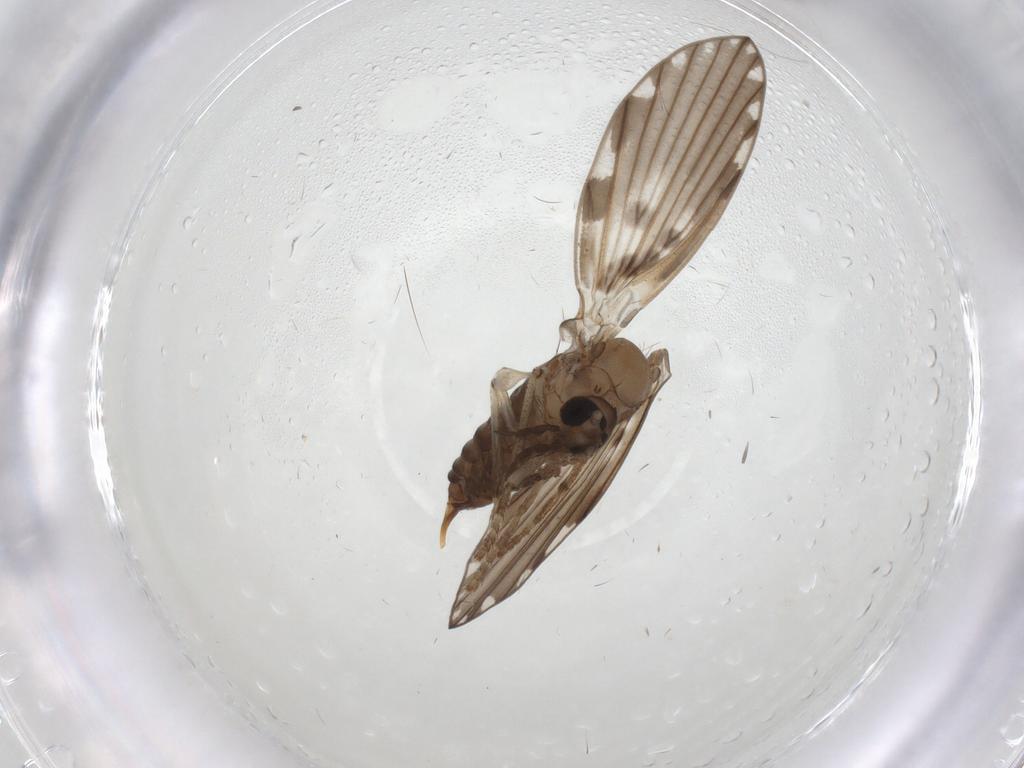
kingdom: Animalia
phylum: Arthropoda
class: Insecta
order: Diptera
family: Psychodidae
